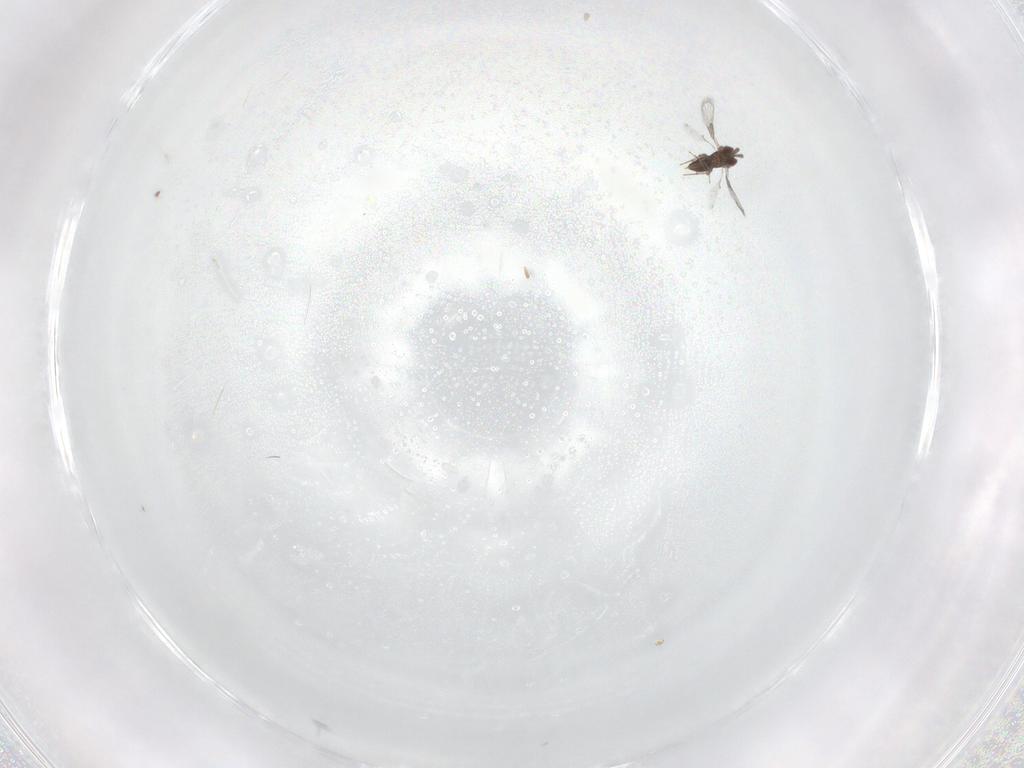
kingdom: Animalia
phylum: Arthropoda
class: Insecta
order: Hymenoptera
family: Trichogrammatidae
